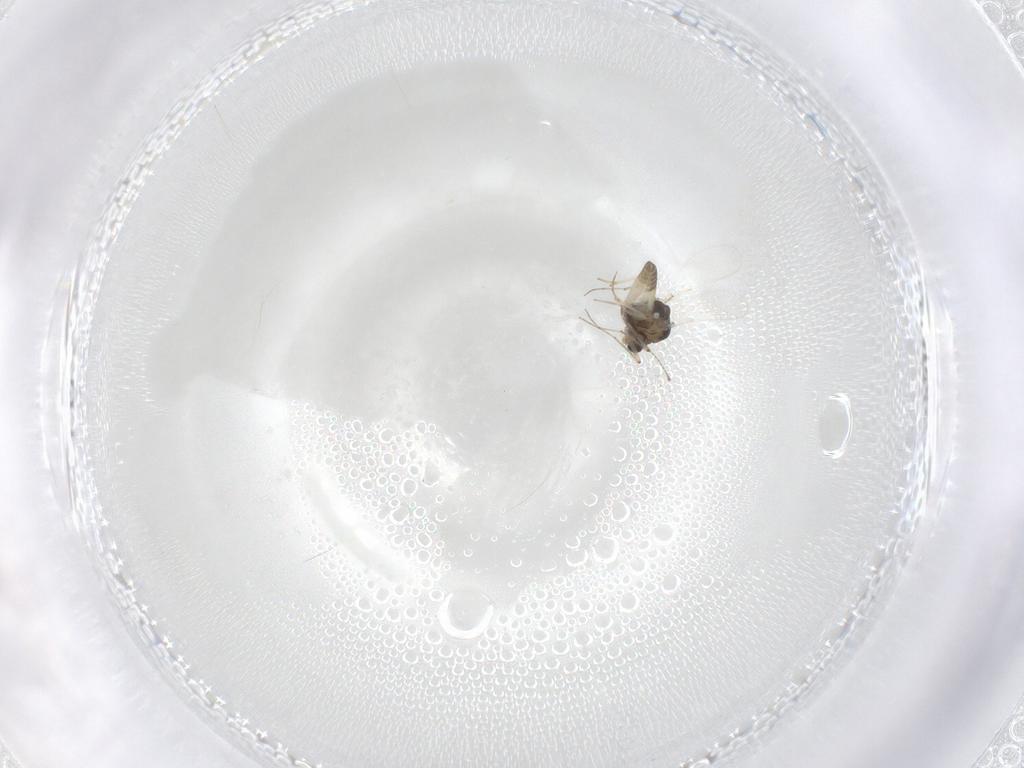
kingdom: Animalia
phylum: Arthropoda
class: Insecta
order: Diptera
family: Chironomidae
